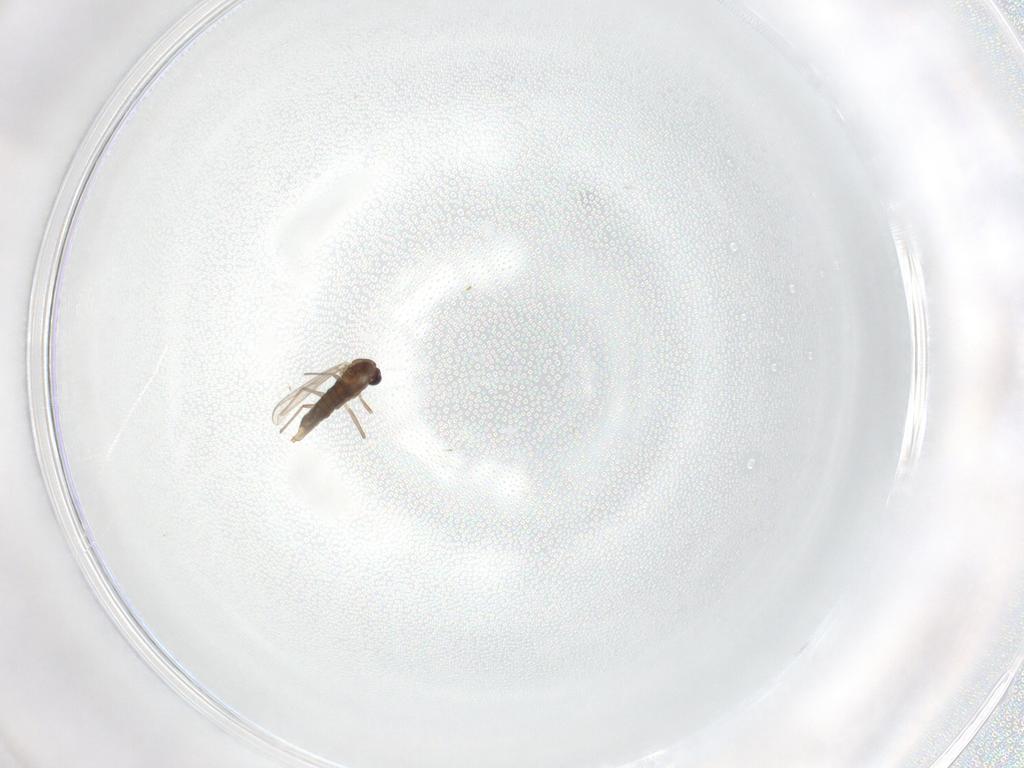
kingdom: Animalia
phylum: Arthropoda
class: Insecta
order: Diptera
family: Chironomidae
